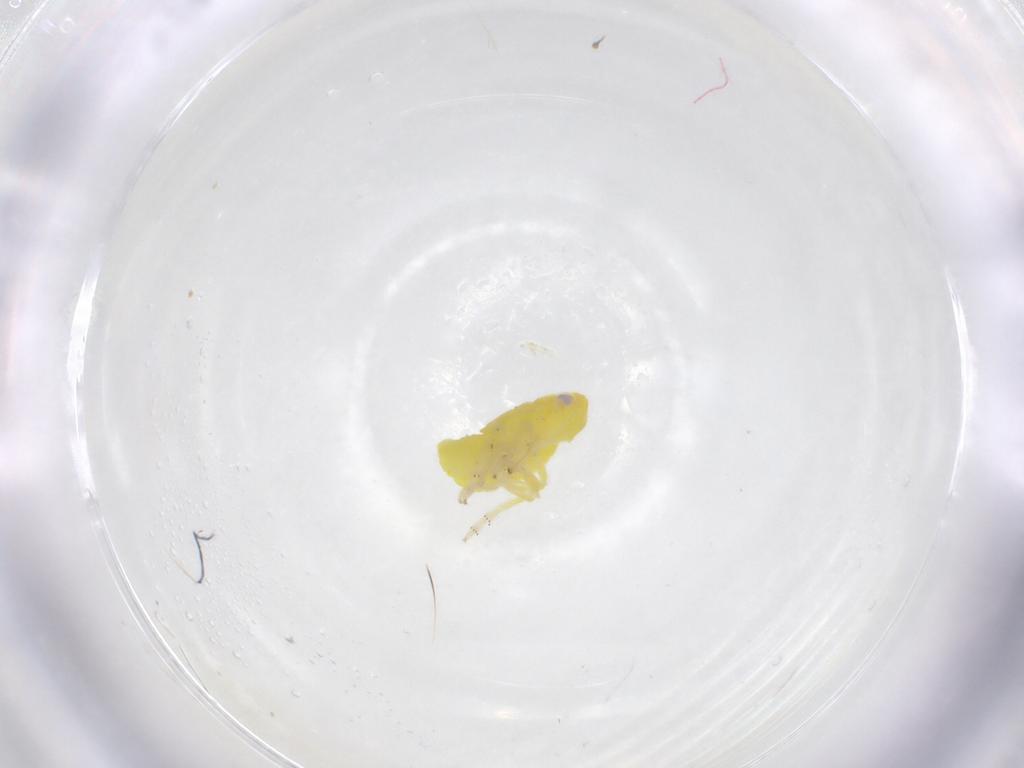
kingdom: Animalia
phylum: Arthropoda
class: Insecta
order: Hemiptera
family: Tropiduchidae
